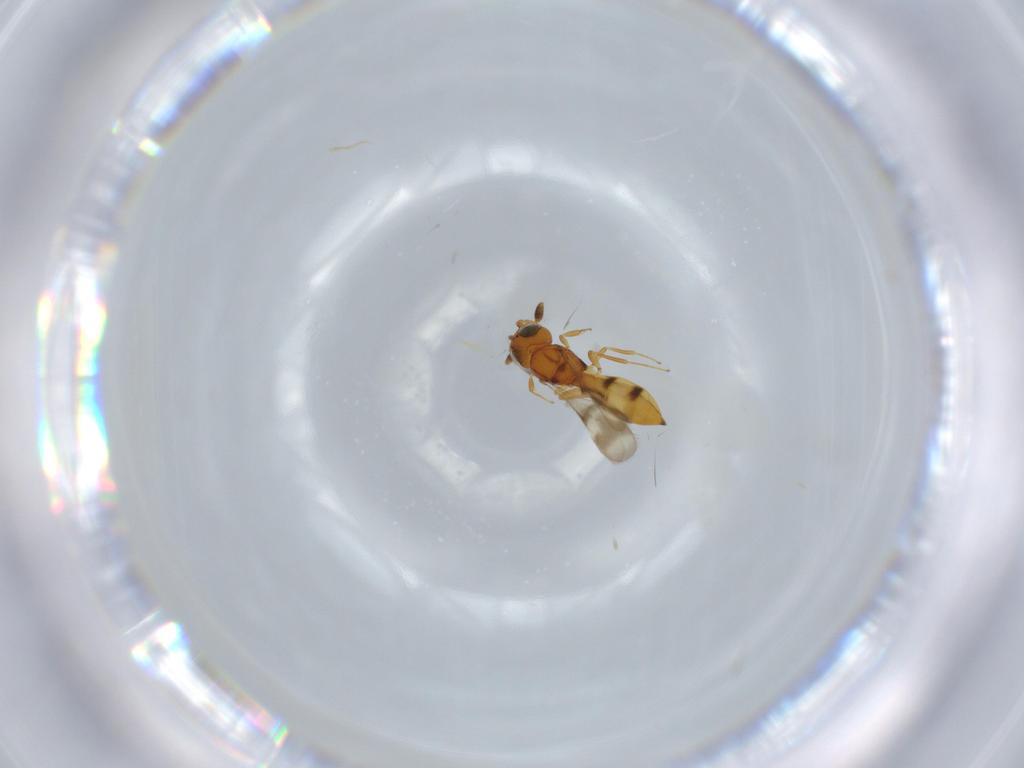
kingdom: Animalia
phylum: Arthropoda
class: Insecta
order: Hymenoptera
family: Scelionidae
